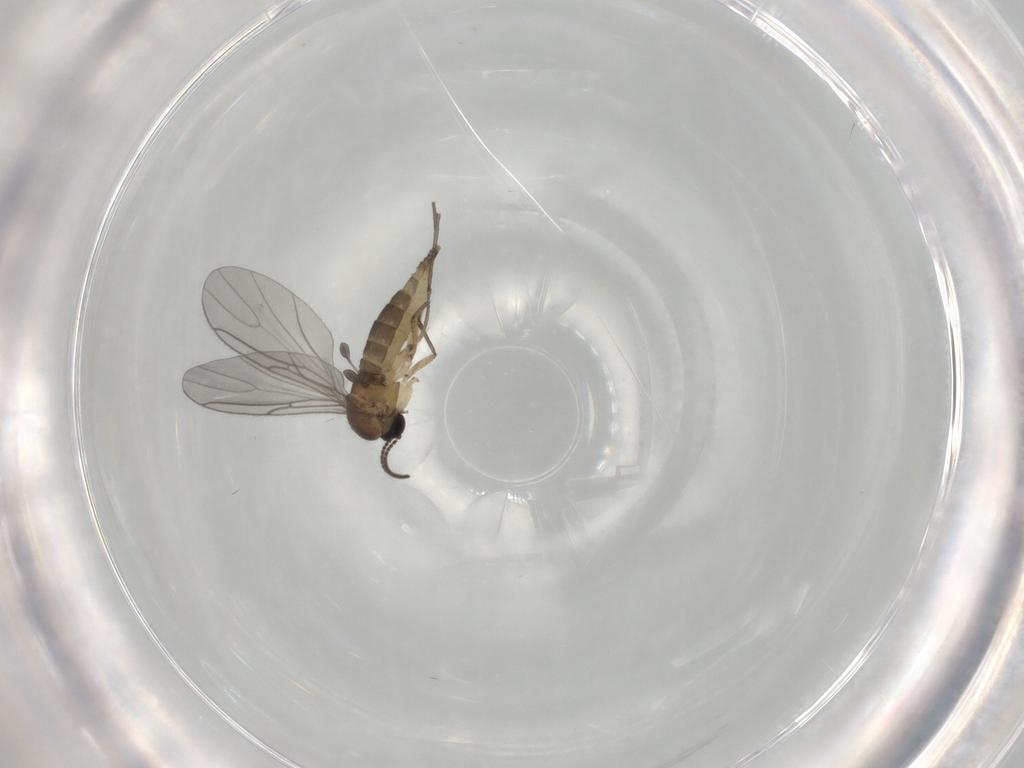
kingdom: Animalia
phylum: Arthropoda
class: Insecta
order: Diptera
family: Sciaridae
